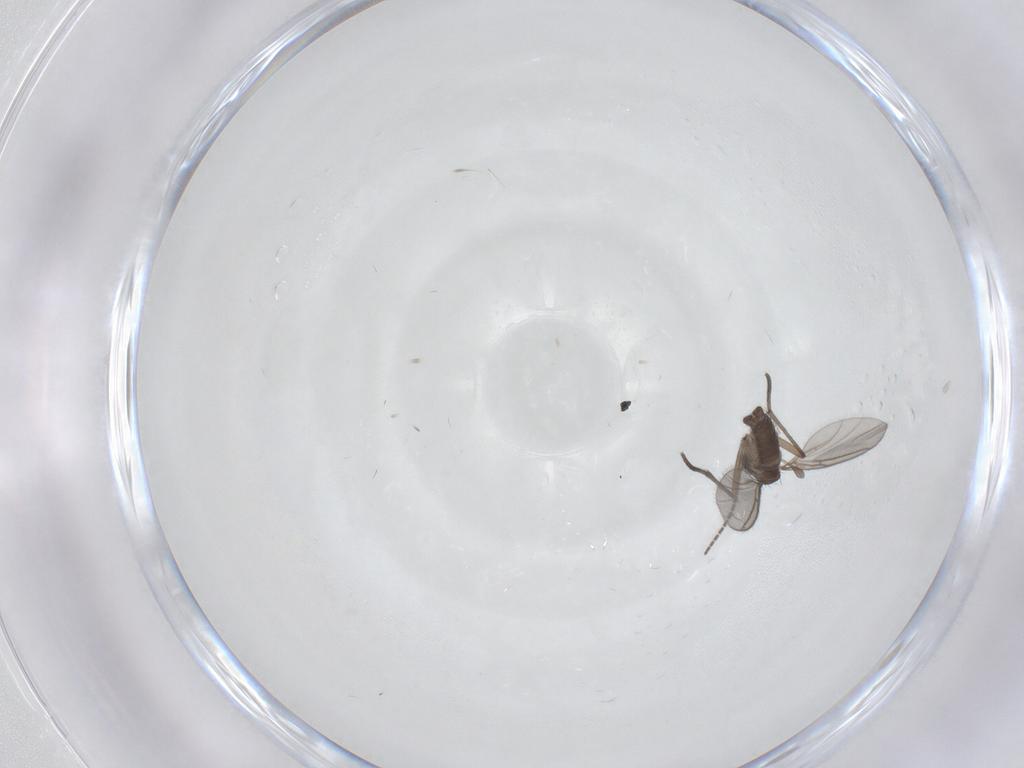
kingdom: Animalia
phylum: Arthropoda
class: Insecta
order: Diptera
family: Sciaridae
